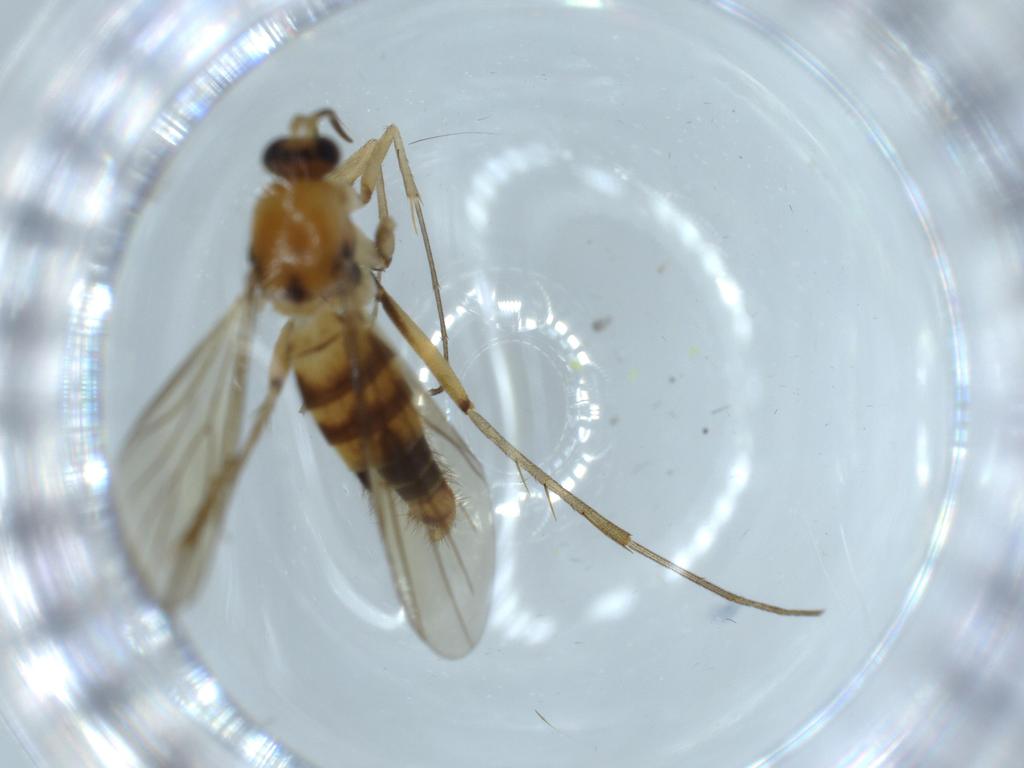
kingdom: Animalia
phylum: Arthropoda
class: Insecta
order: Diptera
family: Mycetophilidae
